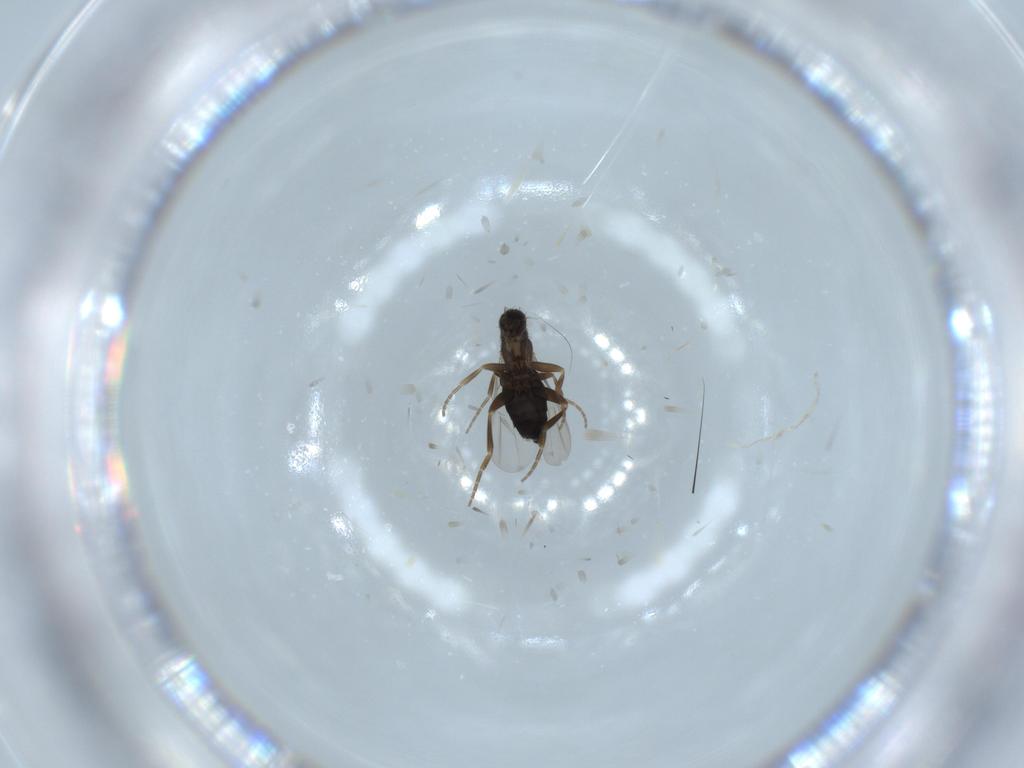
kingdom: Animalia
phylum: Arthropoda
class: Insecta
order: Diptera
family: Phoridae
